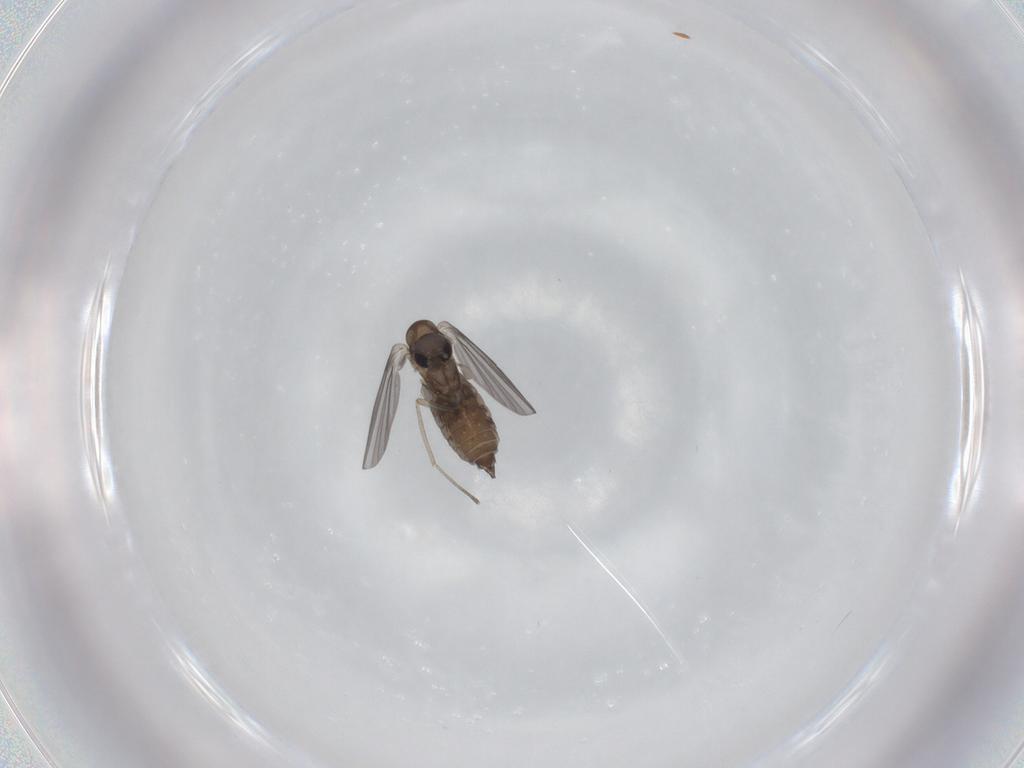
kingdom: Animalia
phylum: Arthropoda
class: Insecta
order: Diptera
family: Psychodidae
